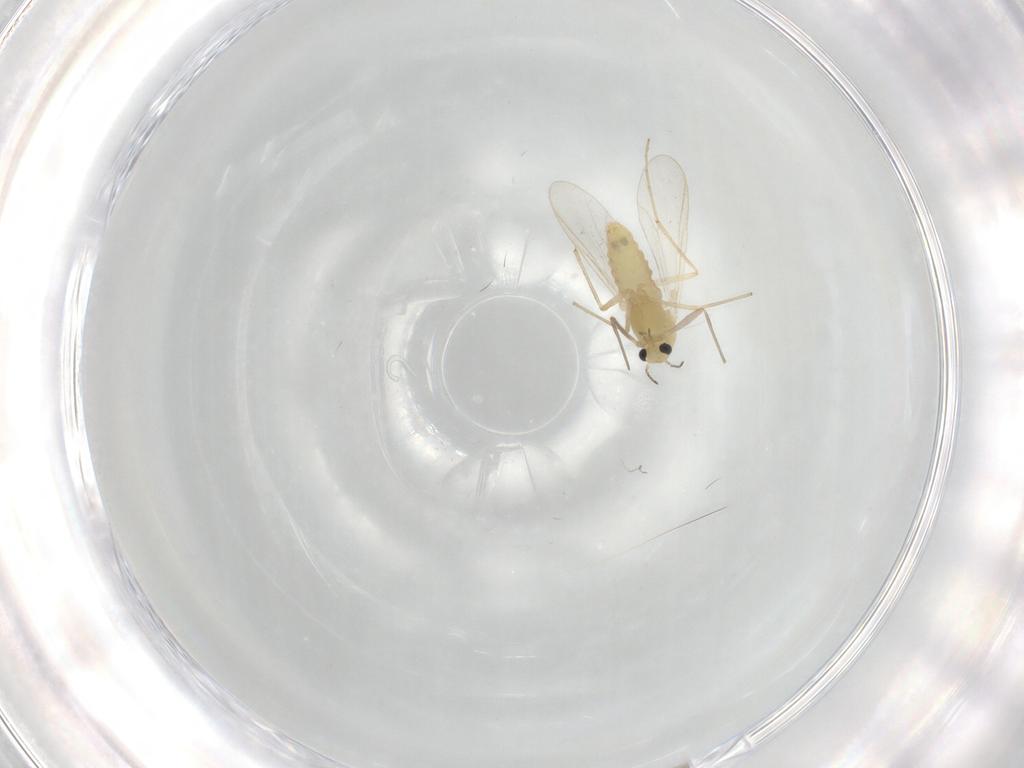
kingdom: Animalia
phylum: Arthropoda
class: Insecta
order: Diptera
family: Chironomidae
